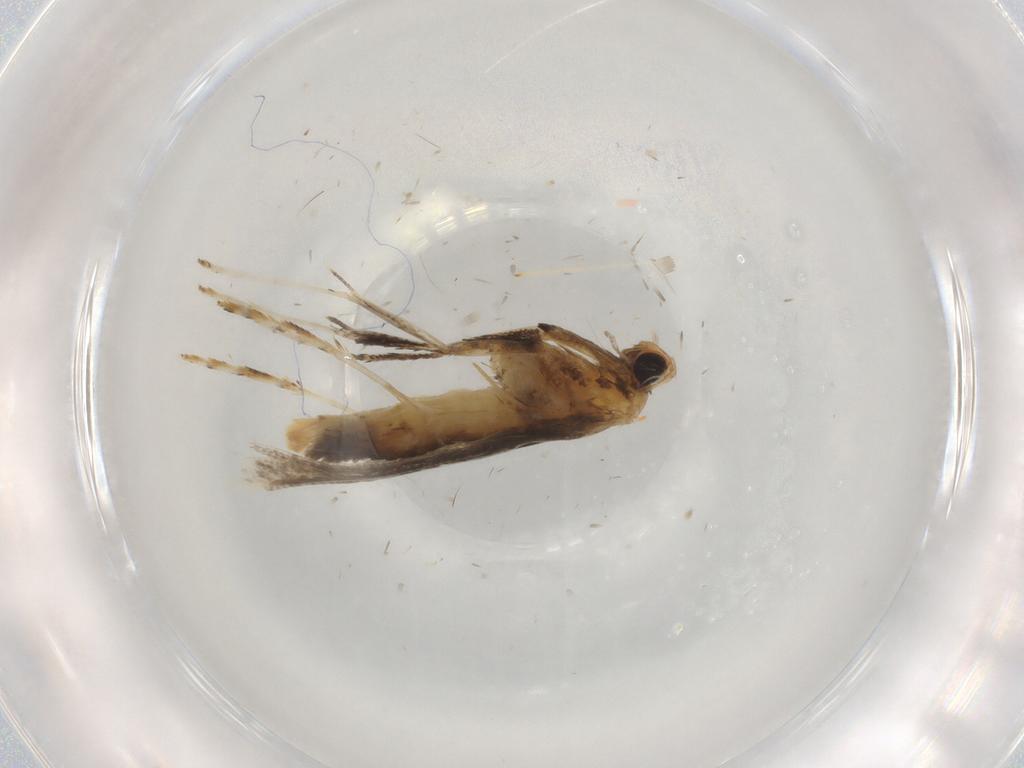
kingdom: Animalia
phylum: Arthropoda
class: Insecta
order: Lepidoptera
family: Gracillariidae
